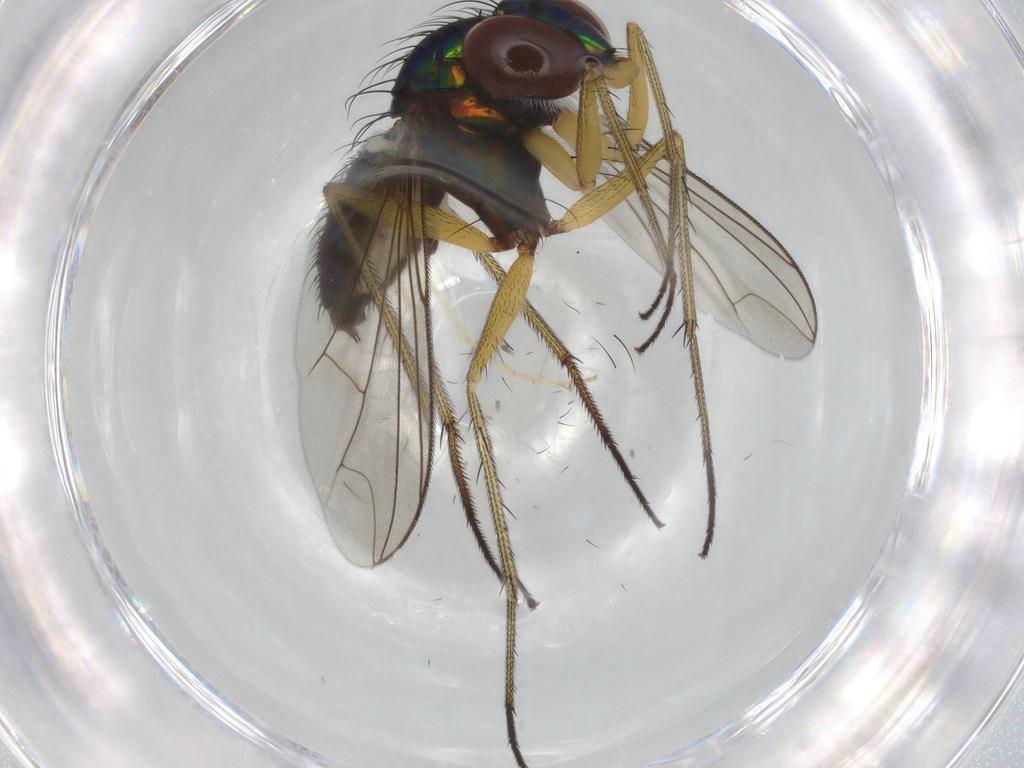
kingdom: Animalia
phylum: Arthropoda
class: Insecta
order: Diptera
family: Dolichopodidae
